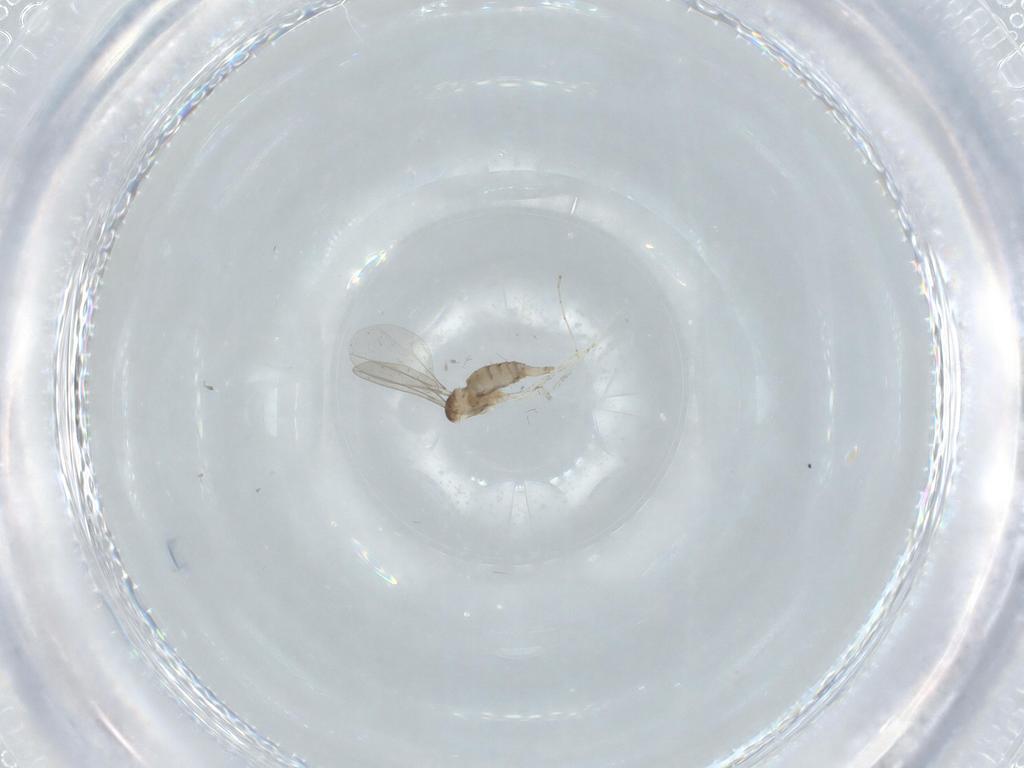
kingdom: Animalia
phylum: Arthropoda
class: Insecta
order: Diptera
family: Cecidomyiidae
